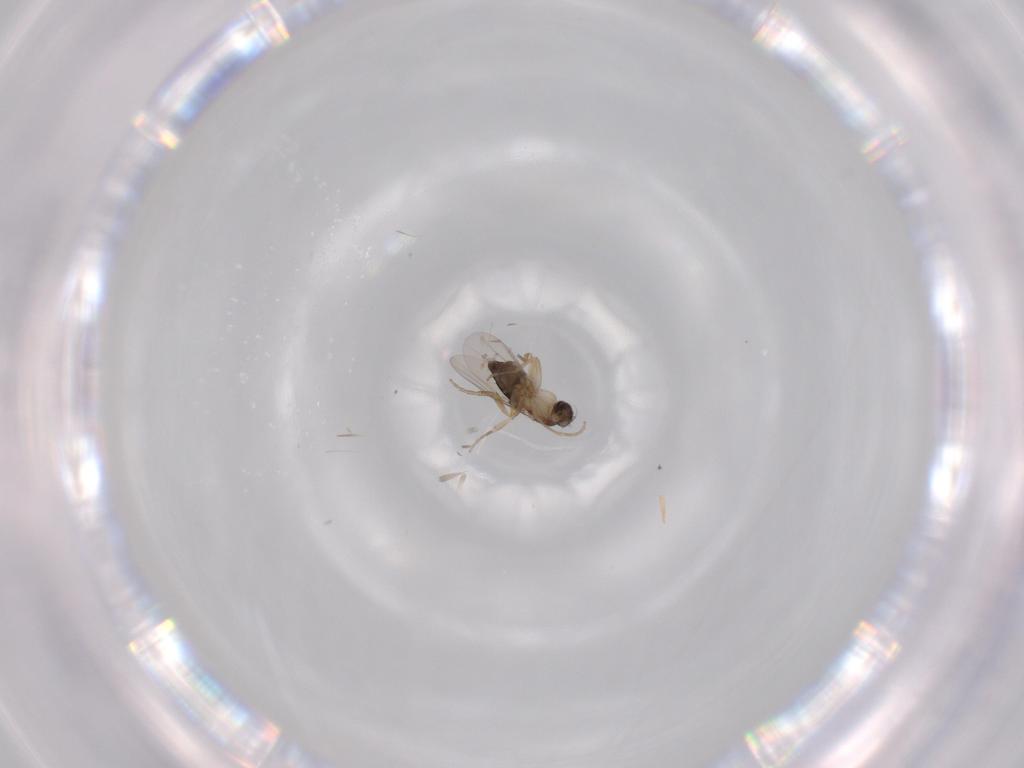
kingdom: Animalia
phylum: Arthropoda
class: Insecta
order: Diptera
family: Phoridae
